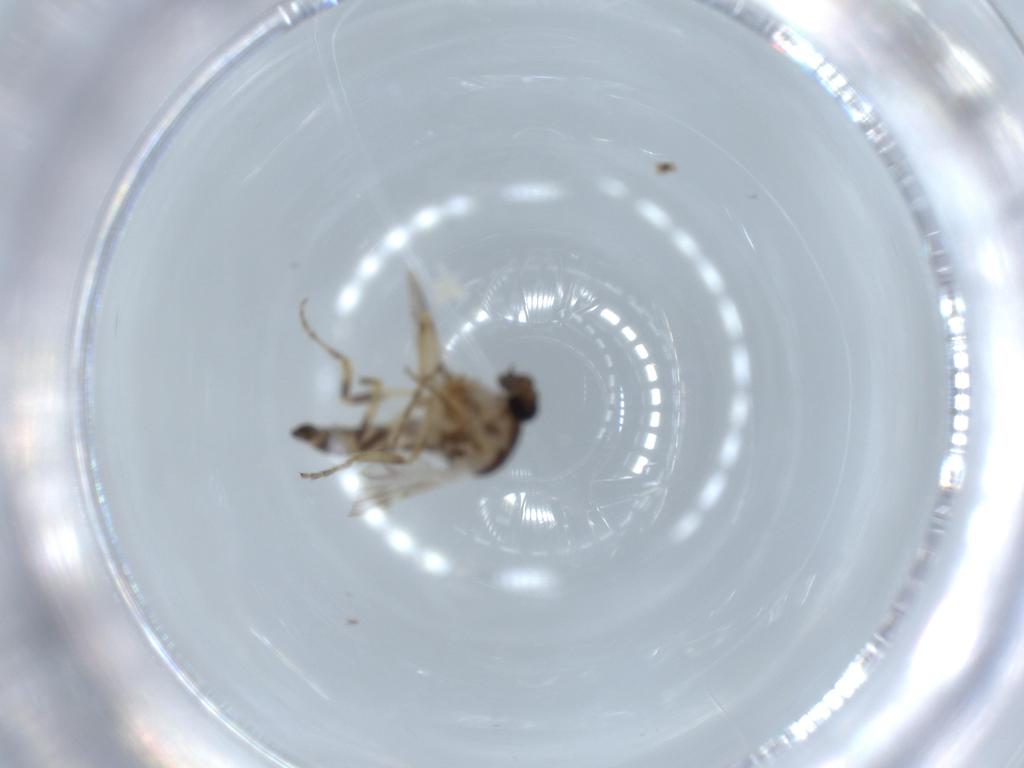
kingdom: Animalia
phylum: Arthropoda
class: Insecta
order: Diptera
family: Ceratopogonidae
